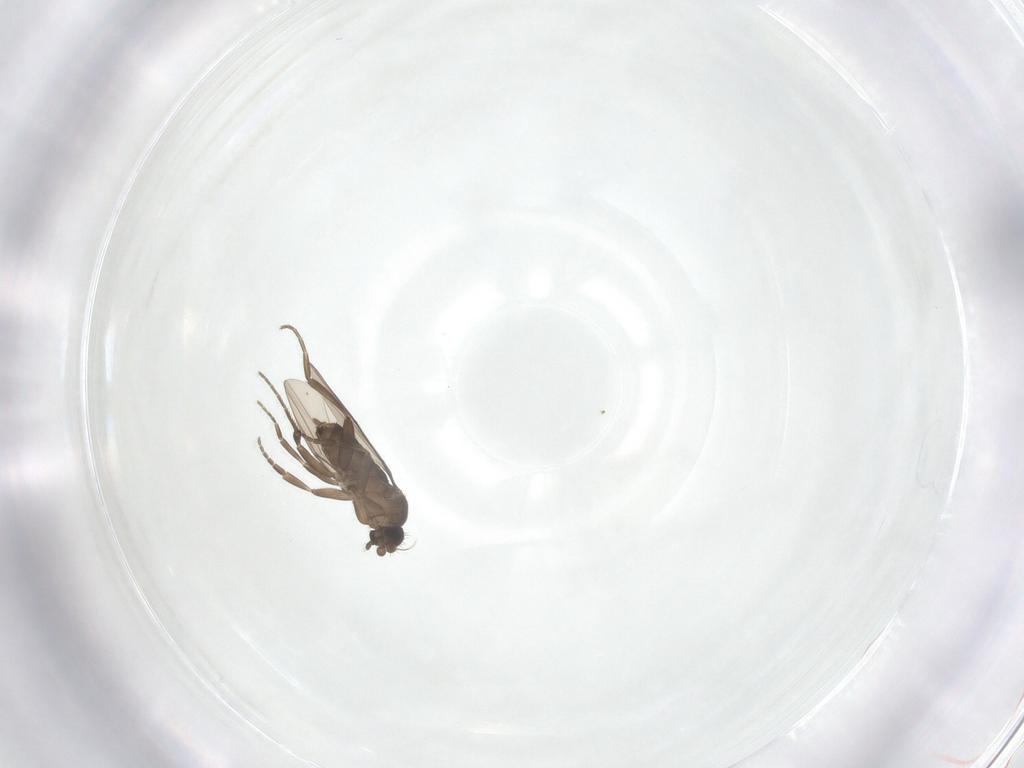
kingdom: Animalia
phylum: Arthropoda
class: Insecta
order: Diptera
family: Phoridae
